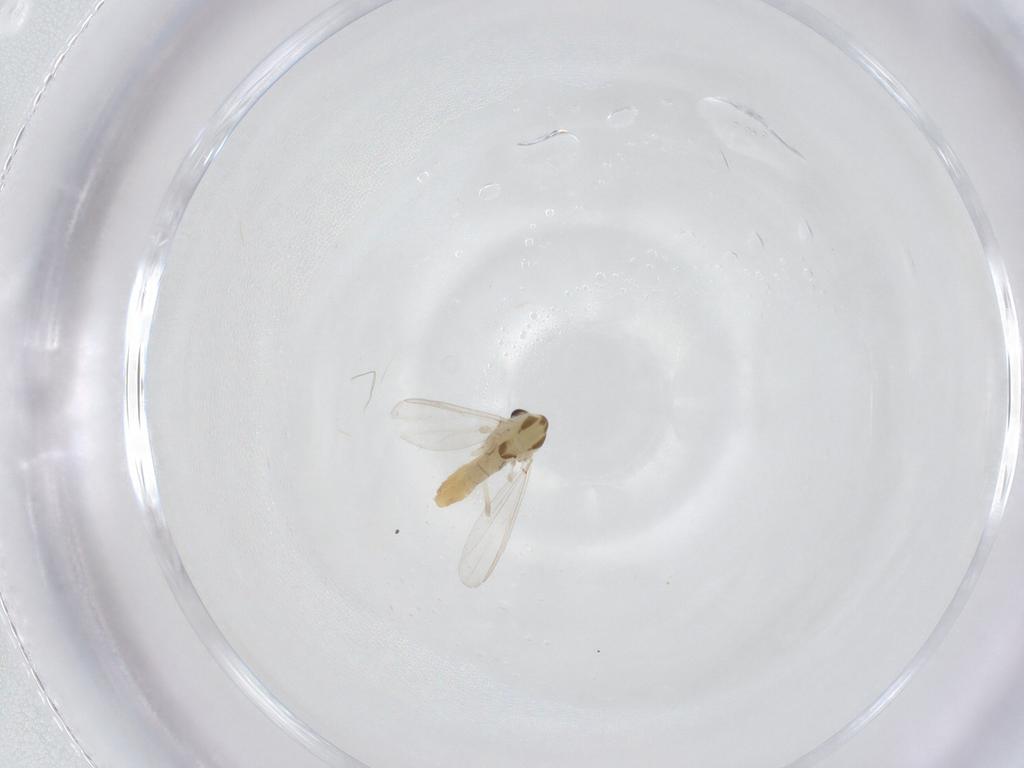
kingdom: Animalia
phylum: Arthropoda
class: Insecta
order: Diptera
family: Chironomidae
